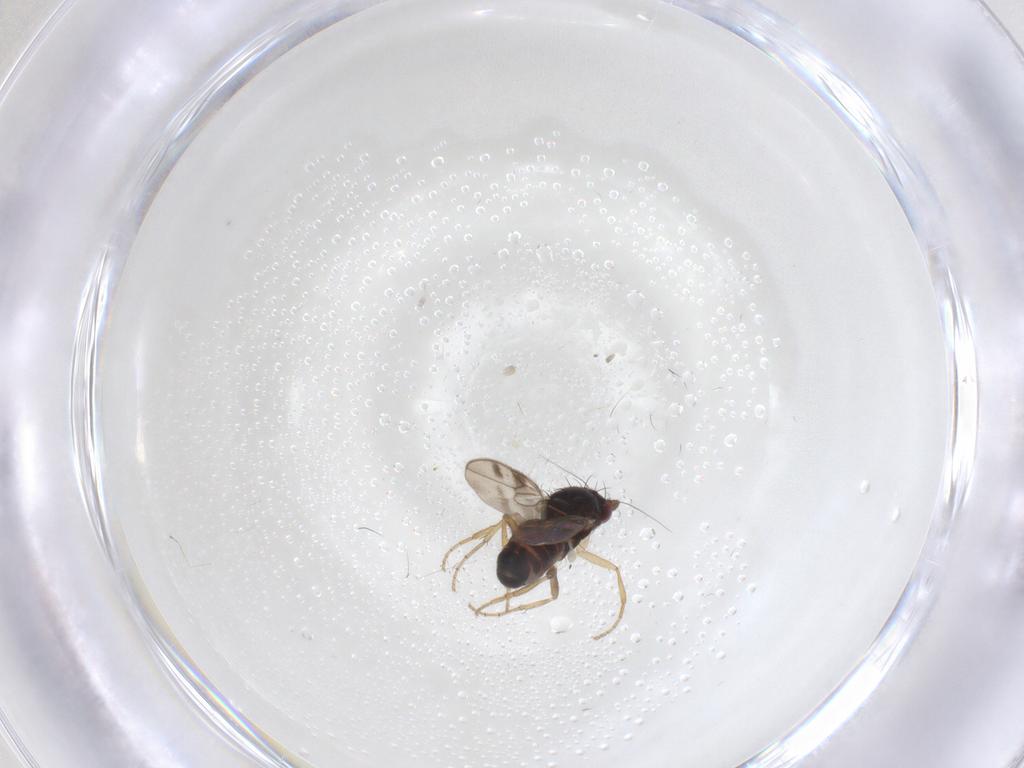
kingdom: Animalia
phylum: Arthropoda
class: Insecta
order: Diptera
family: Sphaeroceridae
